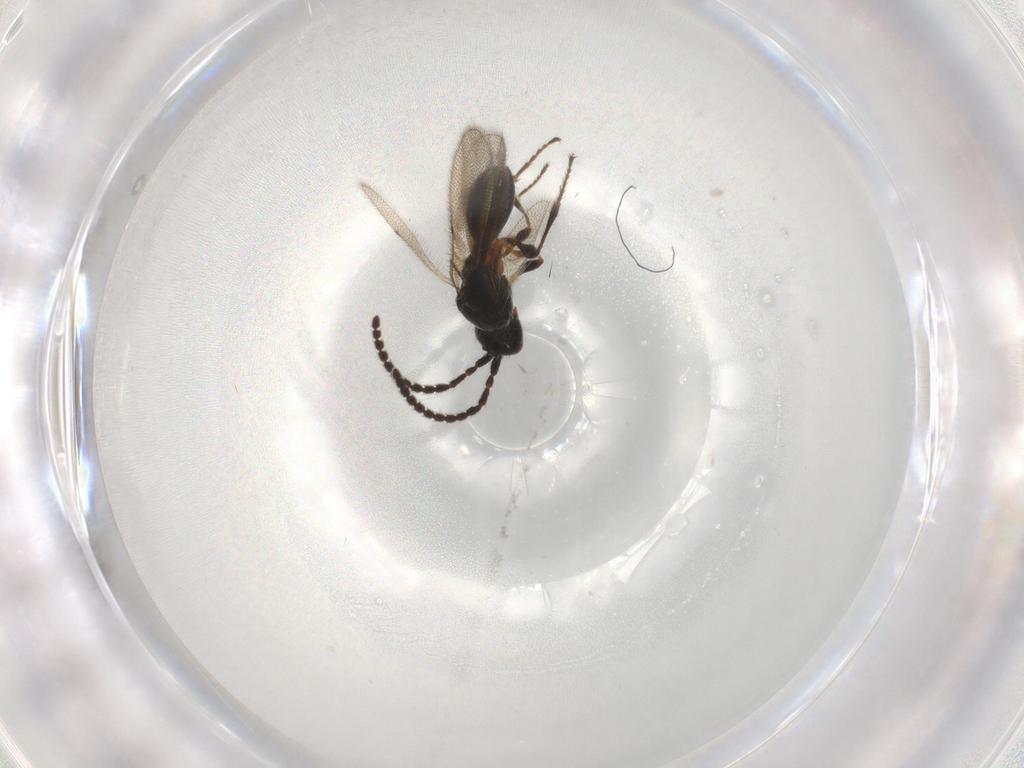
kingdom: Animalia
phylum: Arthropoda
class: Insecta
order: Hymenoptera
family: Diapriidae
